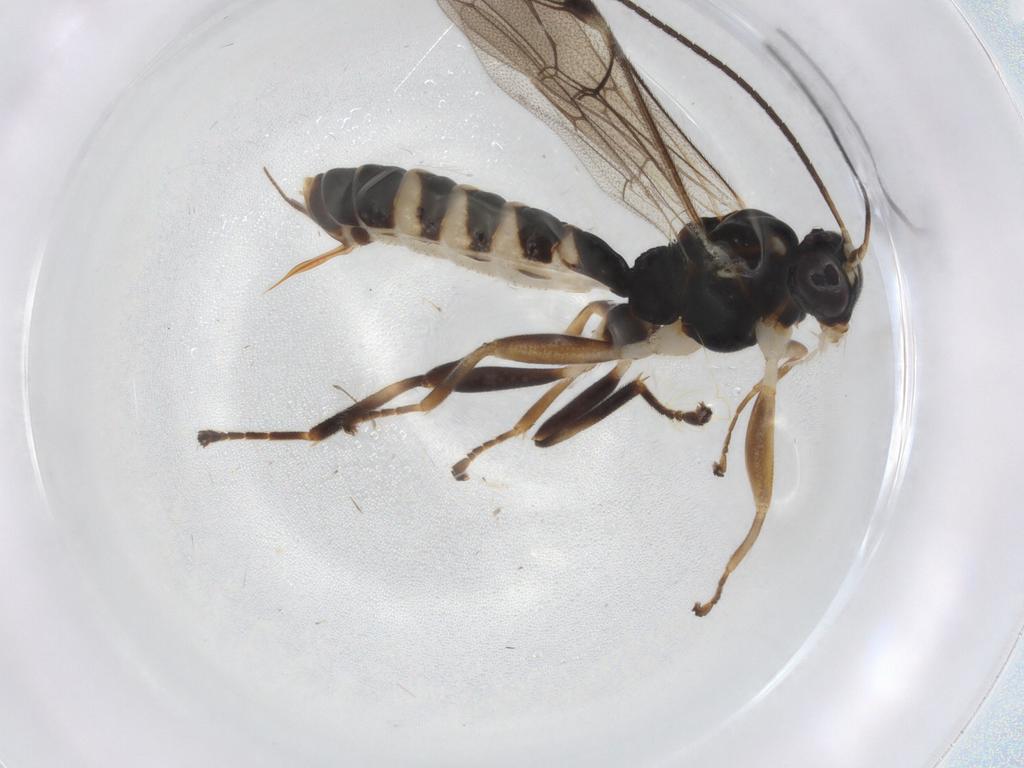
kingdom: Animalia
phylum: Arthropoda
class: Insecta
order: Hymenoptera
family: Ichneumonidae
